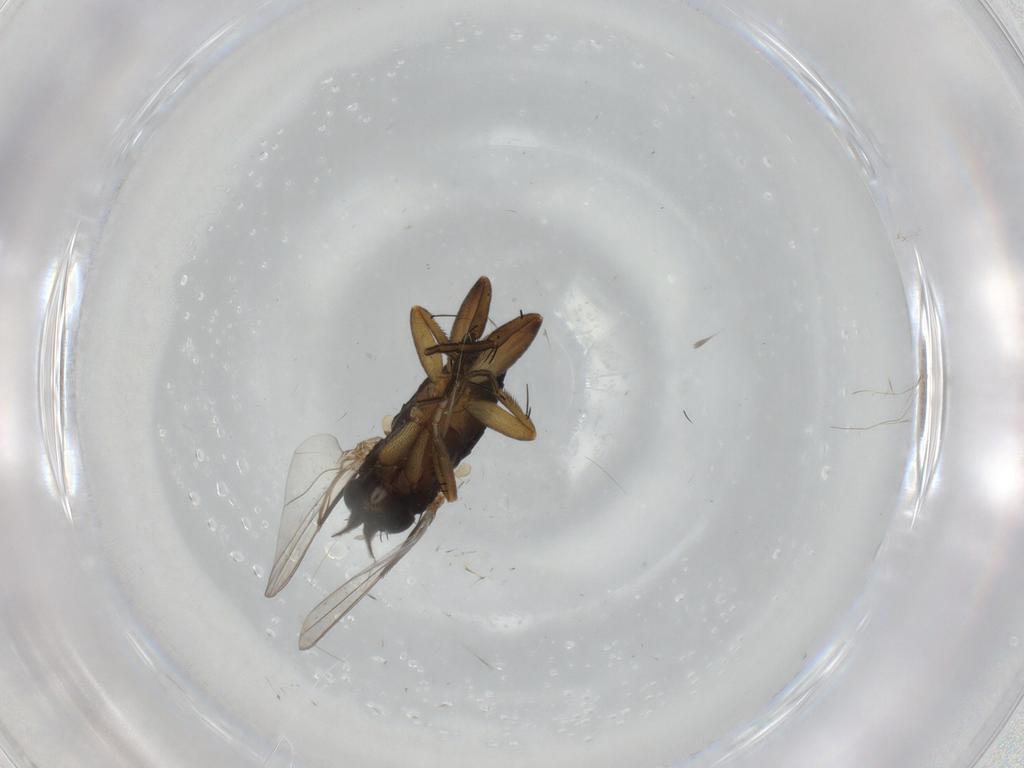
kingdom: Animalia
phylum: Arthropoda
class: Insecta
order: Diptera
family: Phoridae
